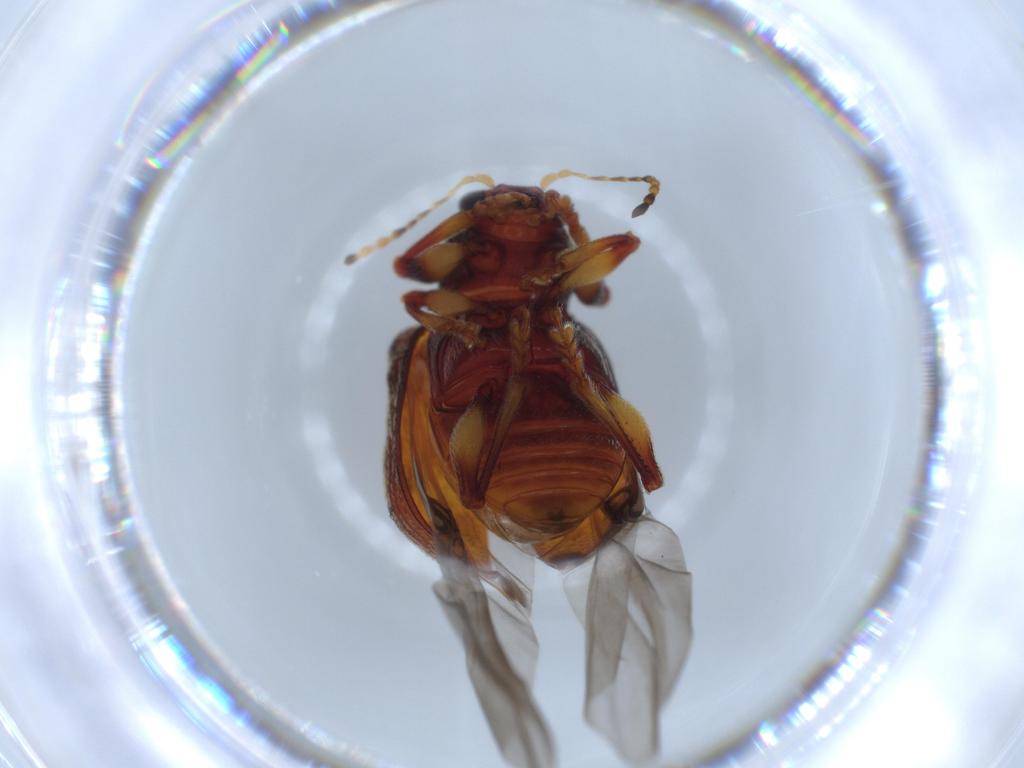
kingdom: Animalia
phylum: Arthropoda
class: Insecta
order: Coleoptera
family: Chrysomelidae
